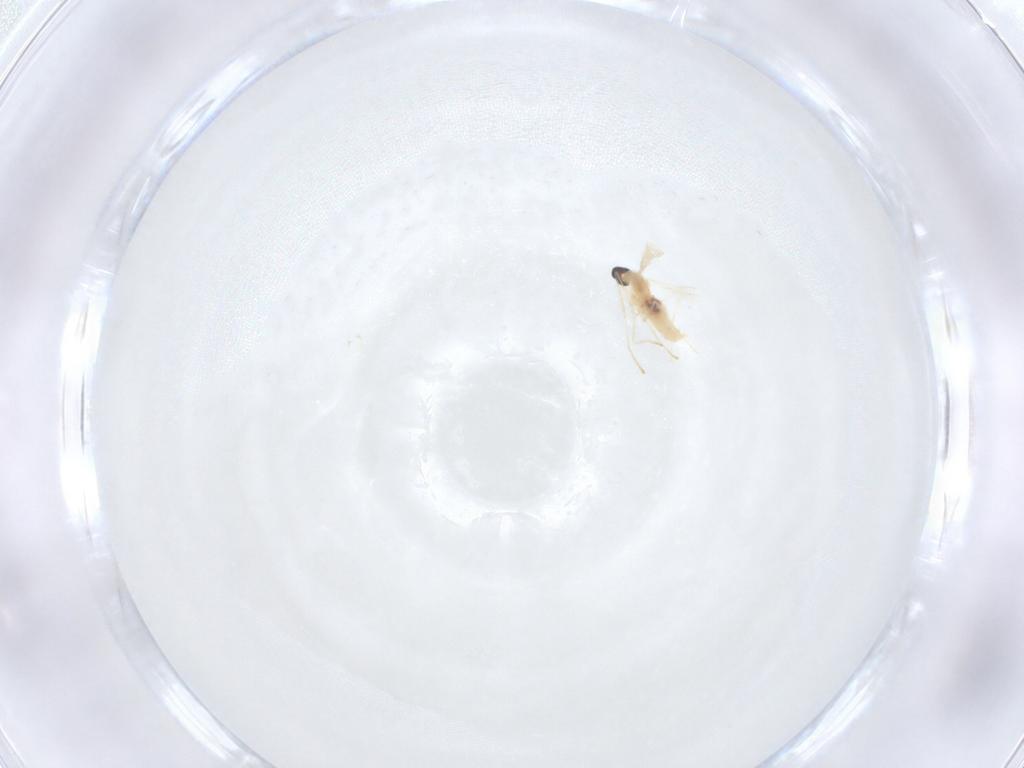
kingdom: Animalia
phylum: Arthropoda
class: Insecta
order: Diptera
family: Cecidomyiidae
